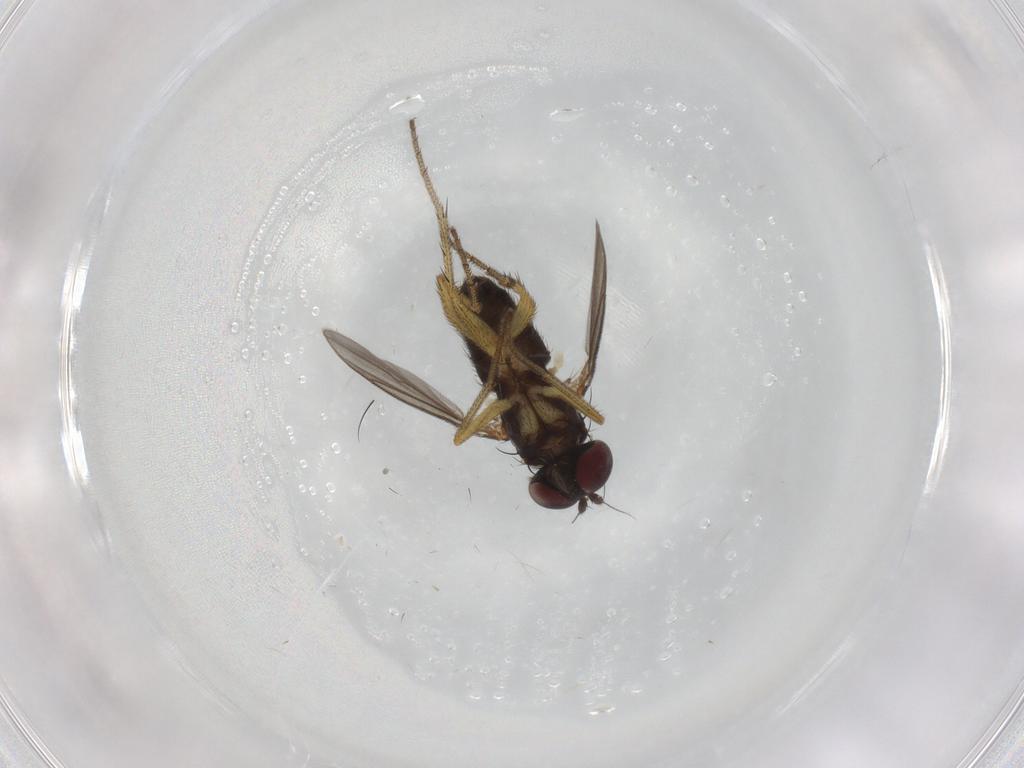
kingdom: Animalia
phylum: Arthropoda
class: Insecta
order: Diptera
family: Dolichopodidae
